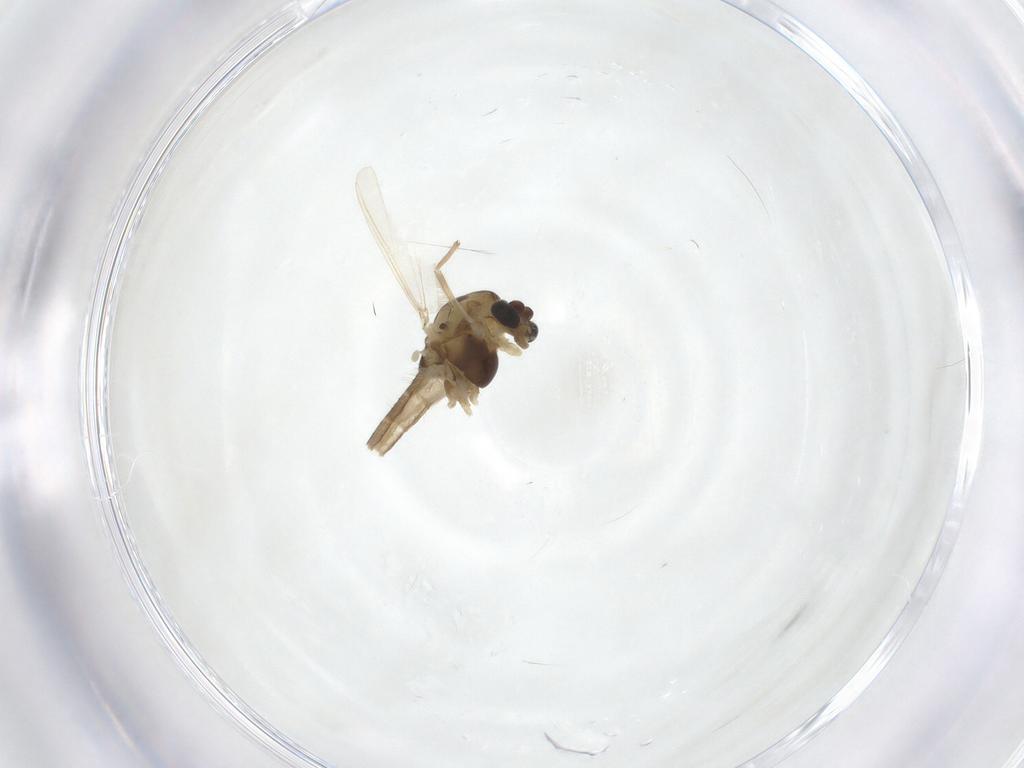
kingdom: Animalia
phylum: Arthropoda
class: Insecta
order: Diptera
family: Chironomidae
